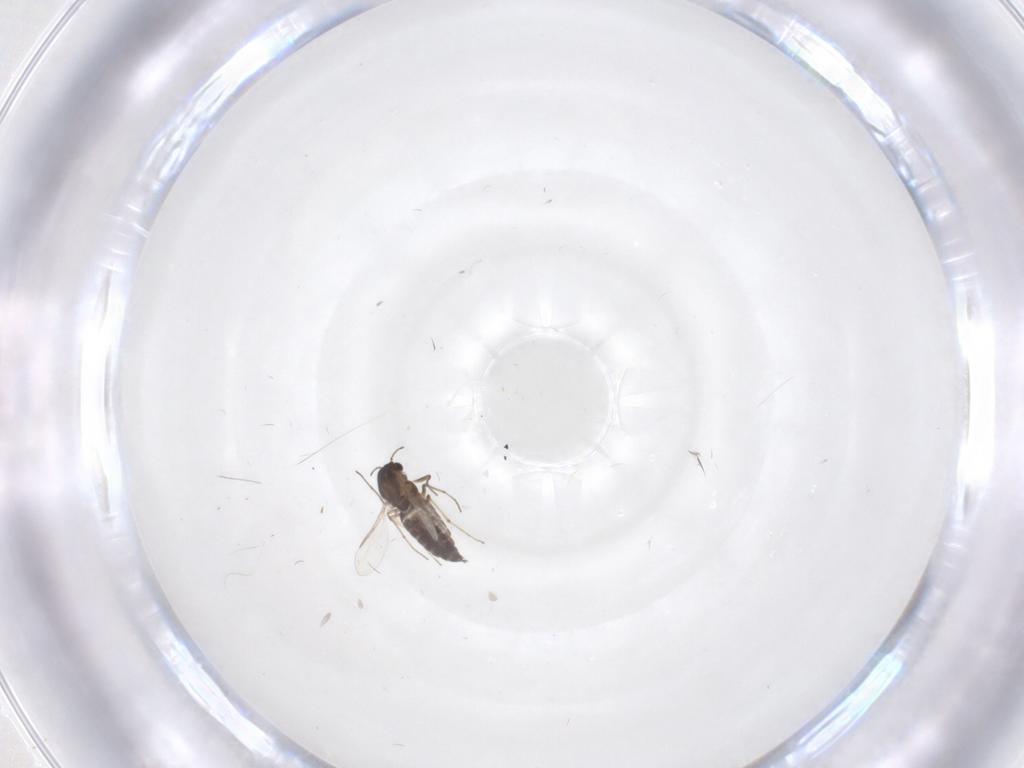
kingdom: Animalia
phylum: Arthropoda
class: Insecta
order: Diptera
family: Chironomidae
